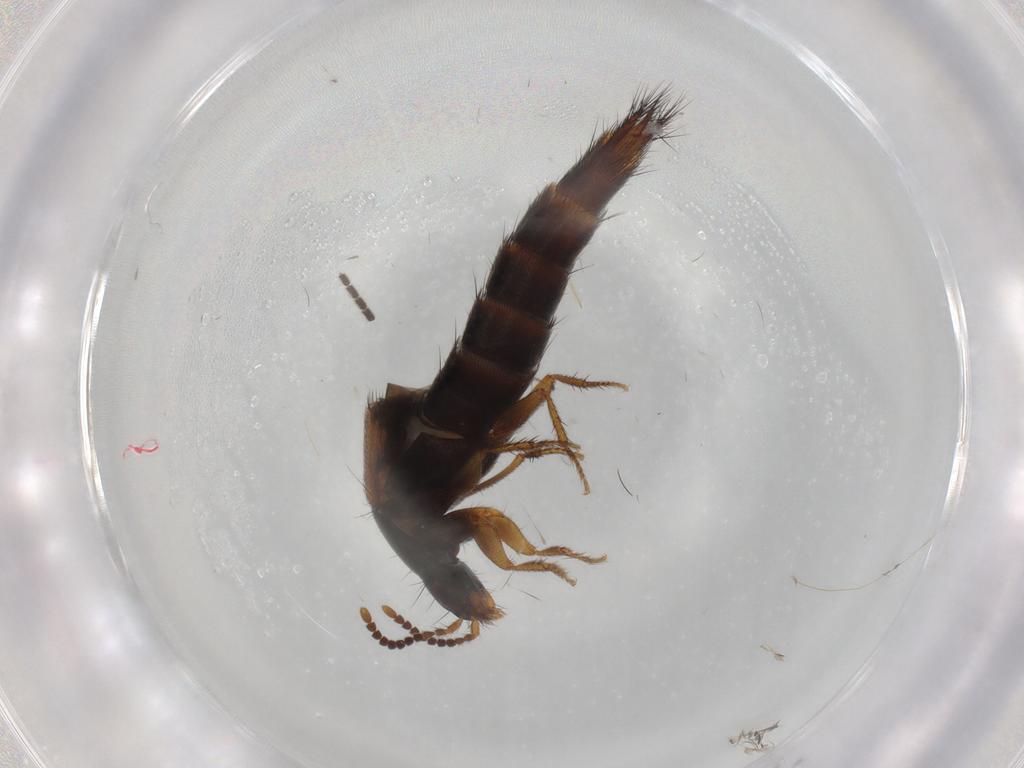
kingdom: Animalia
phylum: Arthropoda
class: Insecta
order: Coleoptera
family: Staphylinidae
